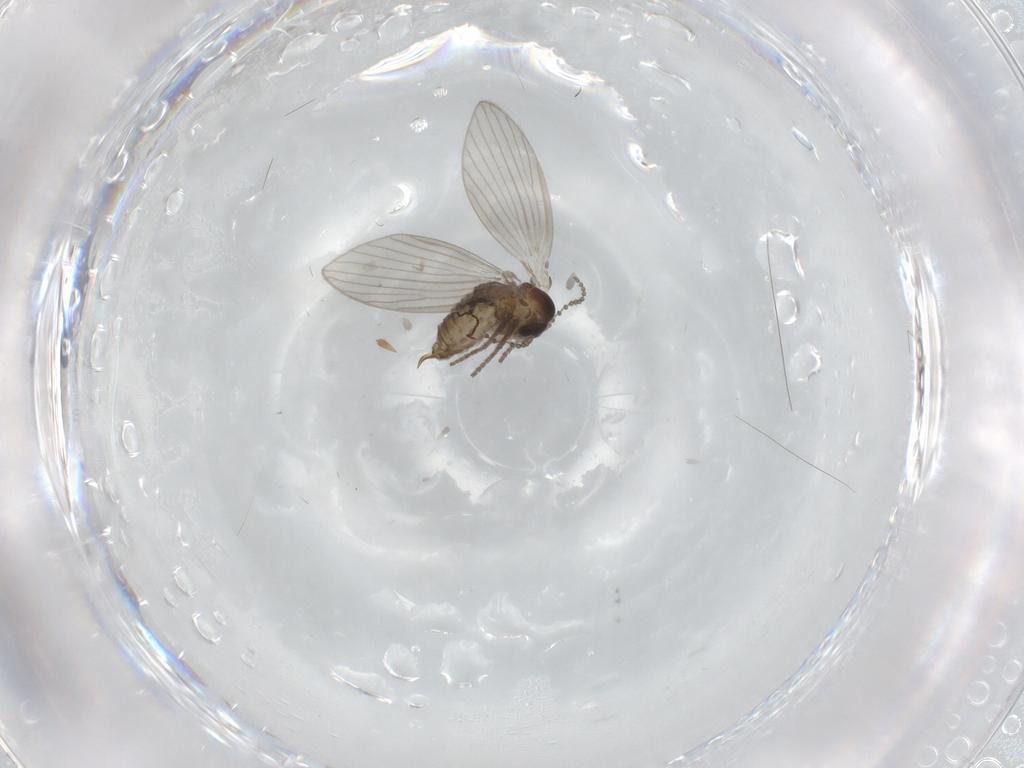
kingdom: Animalia
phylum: Arthropoda
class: Insecta
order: Diptera
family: Psychodidae
